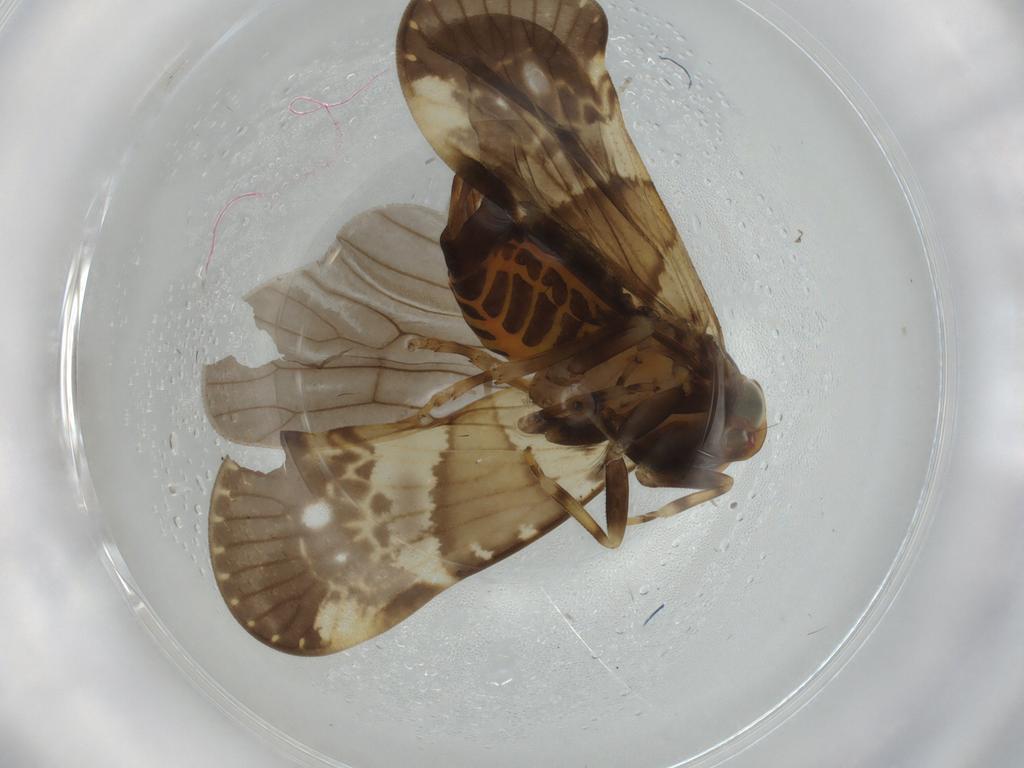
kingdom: Animalia
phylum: Arthropoda
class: Insecta
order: Hemiptera
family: Cixiidae
